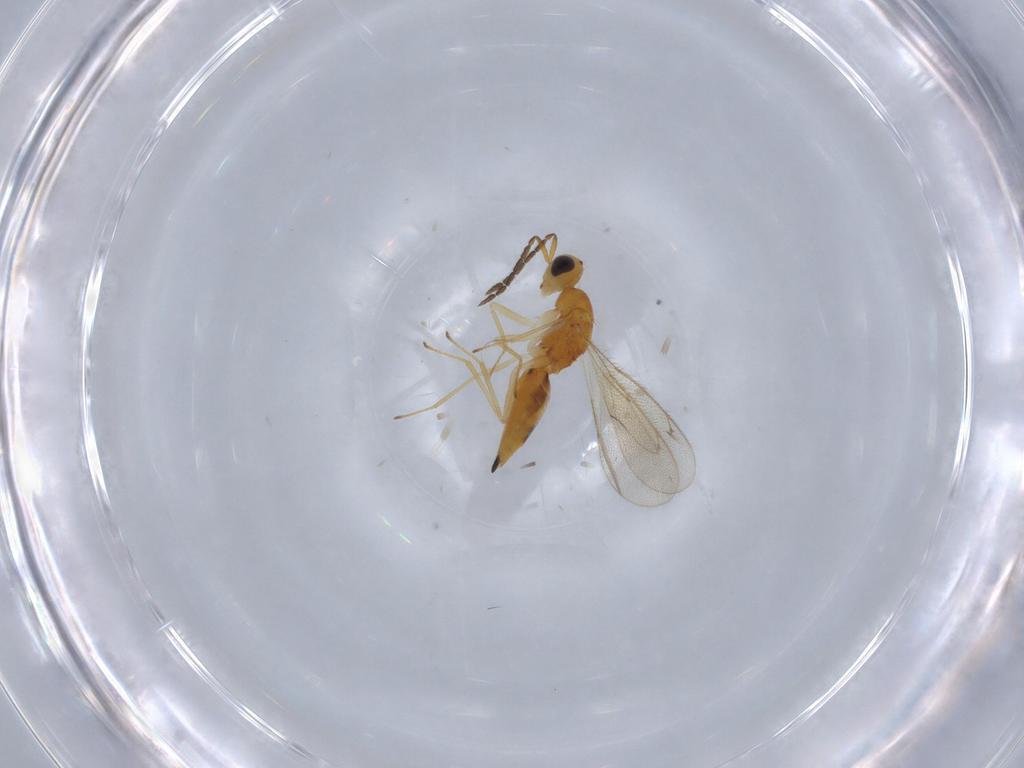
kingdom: Animalia
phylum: Arthropoda
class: Insecta
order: Hymenoptera
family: Eulophidae
